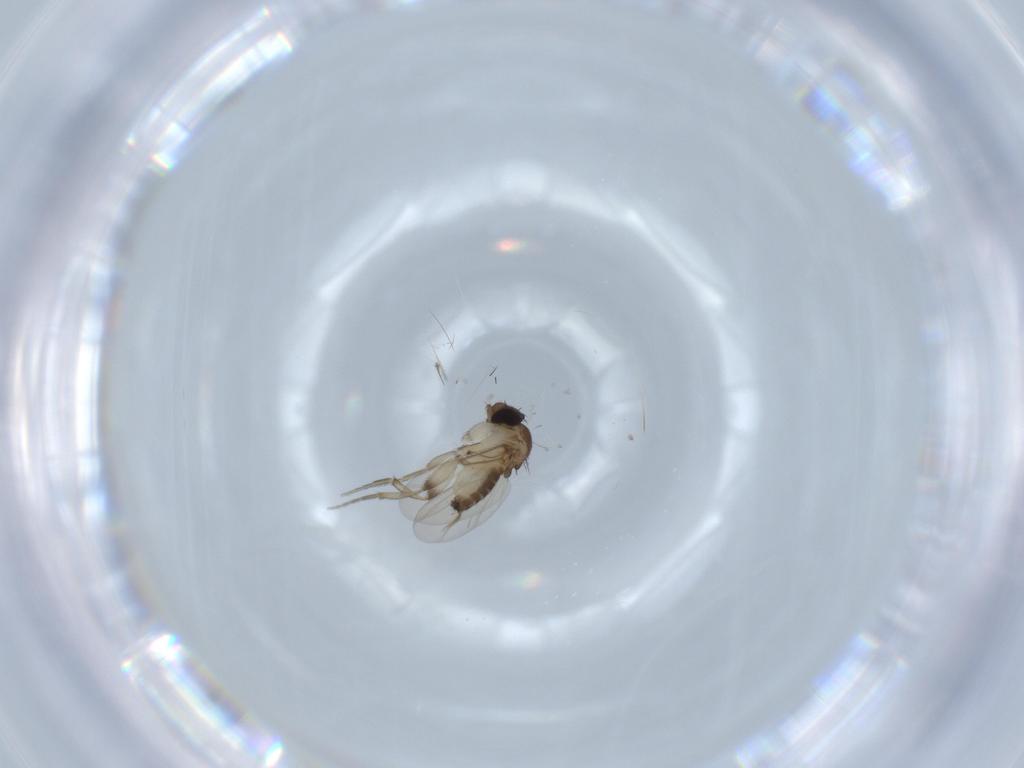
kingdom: Animalia
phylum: Arthropoda
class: Insecta
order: Diptera
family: Phoridae
